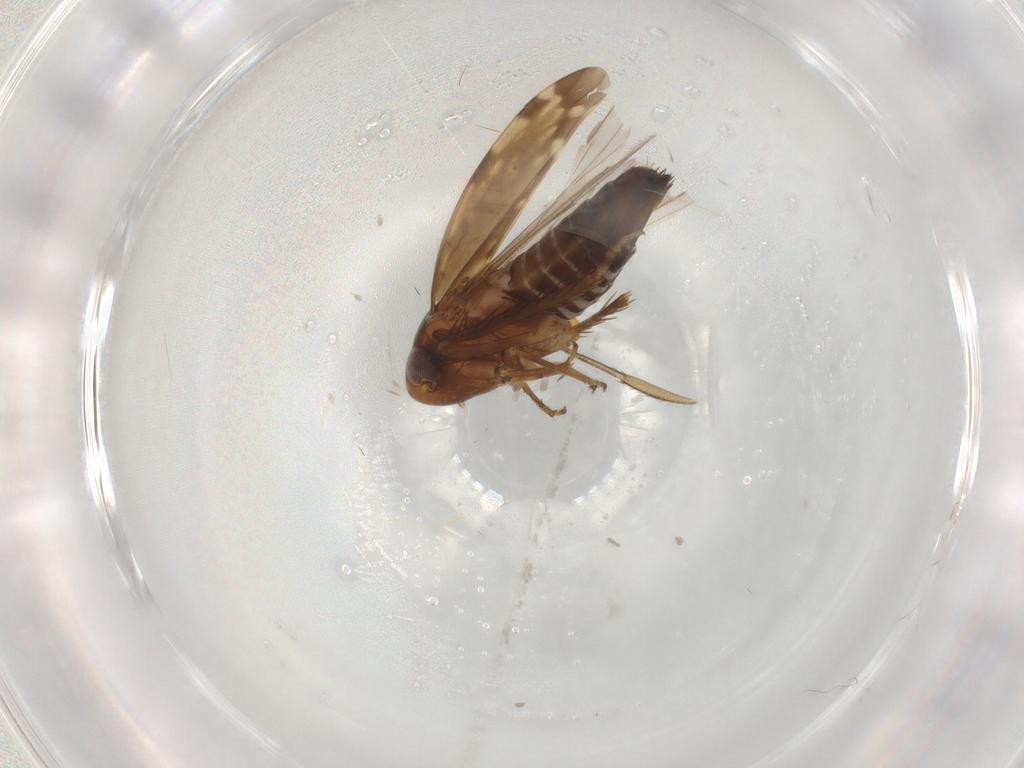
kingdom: Animalia
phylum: Arthropoda
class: Insecta
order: Hemiptera
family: Cicadellidae
